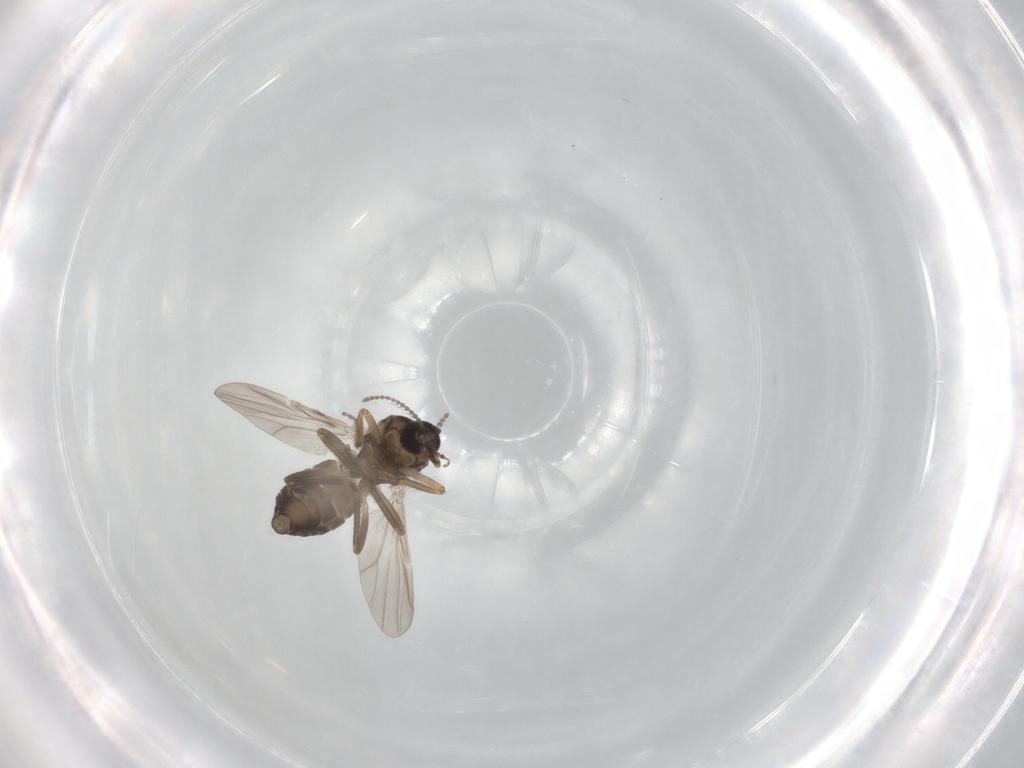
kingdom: Animalia
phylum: Arthropoda
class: Insecta
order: Diptera
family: Ceratopogonidae
